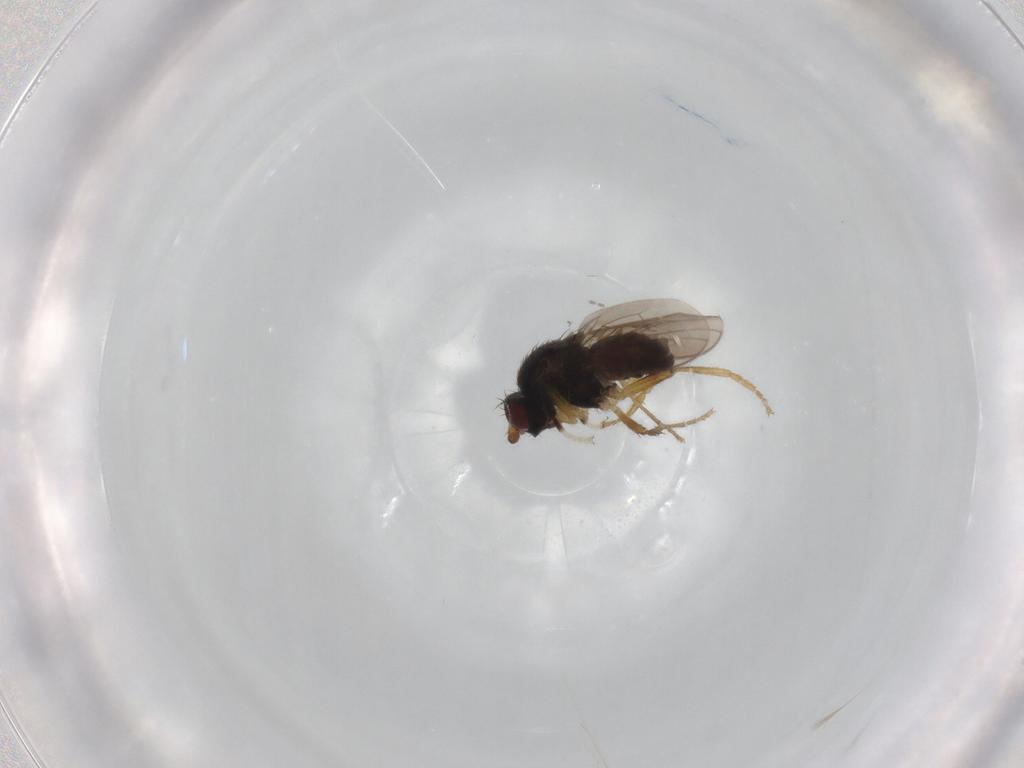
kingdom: Animalia
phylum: Arthropoda
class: Insecta
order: Diptera
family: Sphaeroceridae
